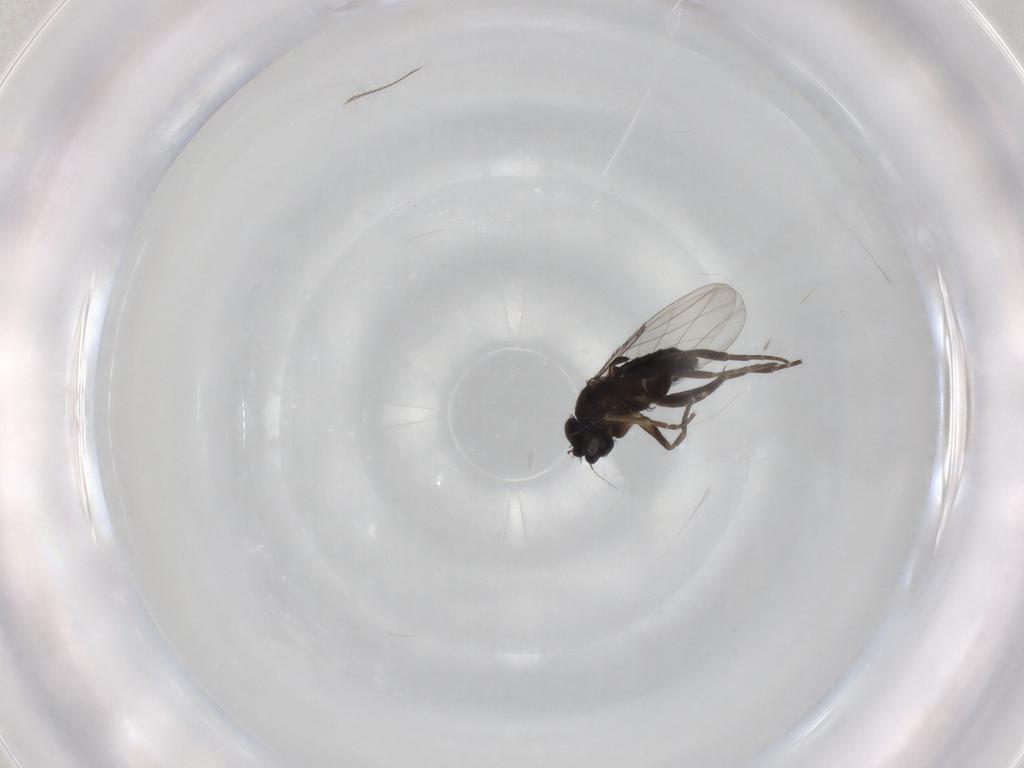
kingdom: Animalia
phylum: Arthropoda
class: Insecta
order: Diptera
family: Phoridae
